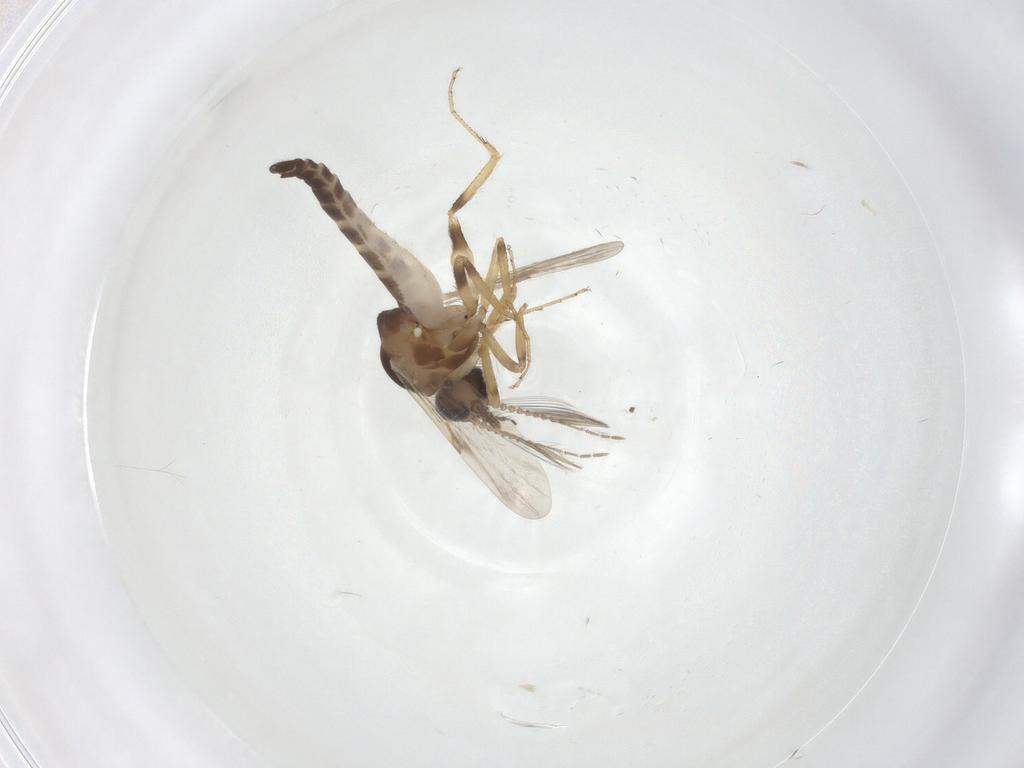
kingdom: Animalia
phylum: Arthropoda
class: Insecta
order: Diptera
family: Ceratopogonidae
